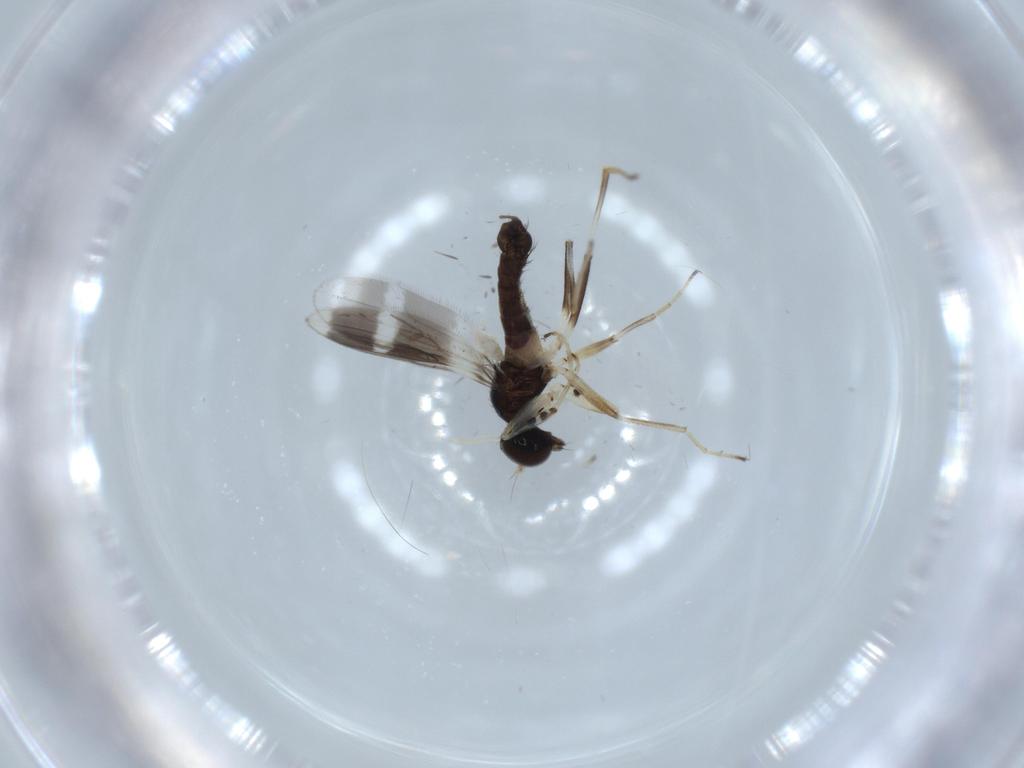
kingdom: Animalia
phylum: Arthropoda
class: Insecta
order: Diptera
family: Hybotidae
